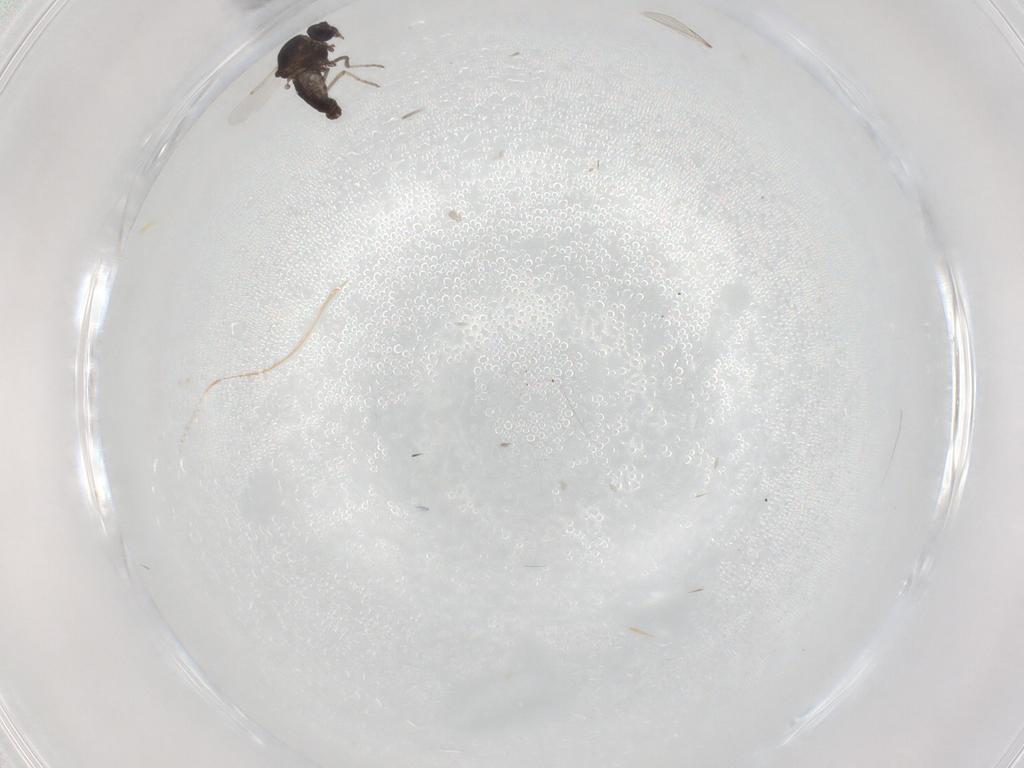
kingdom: Animalia
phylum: Arthropoda
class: Insecta
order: Diptera
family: Ceratopogonidae
